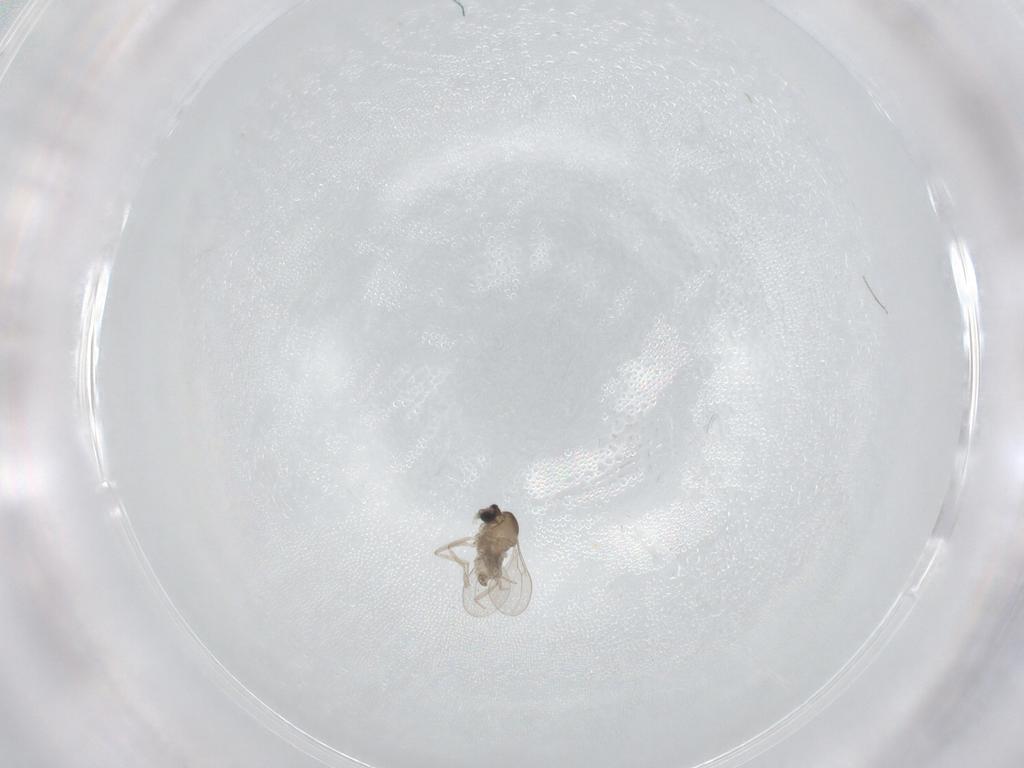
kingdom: Animalia
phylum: Arthropoda
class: Insecta
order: Diptera
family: Cecidomyiidae
